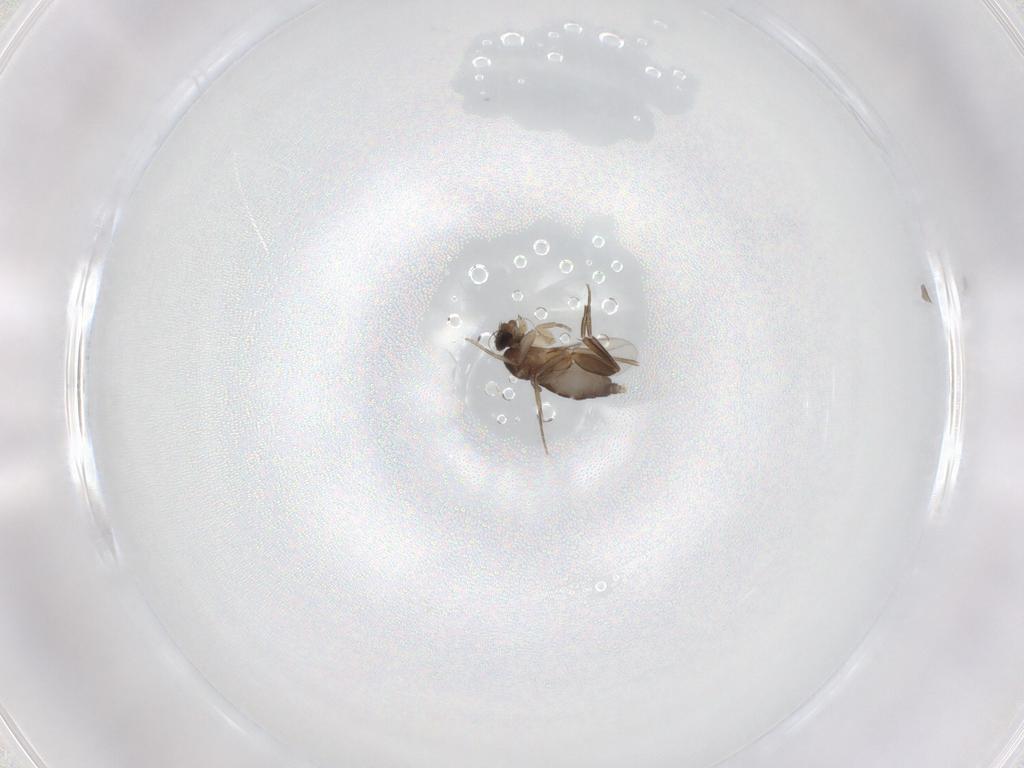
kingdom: Animalia
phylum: Arthropoda
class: Insecta
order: Diptera
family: Phoridae
